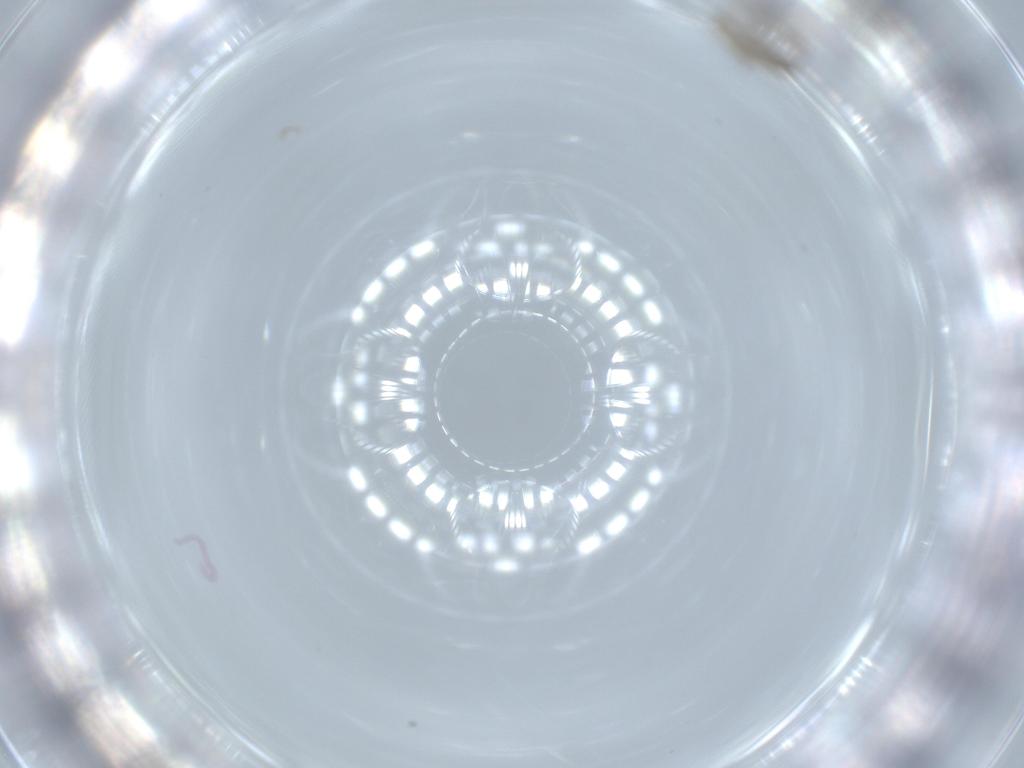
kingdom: Animalia
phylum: Arthropoda
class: Insecta
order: Diptera
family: Cecidomyiidae
